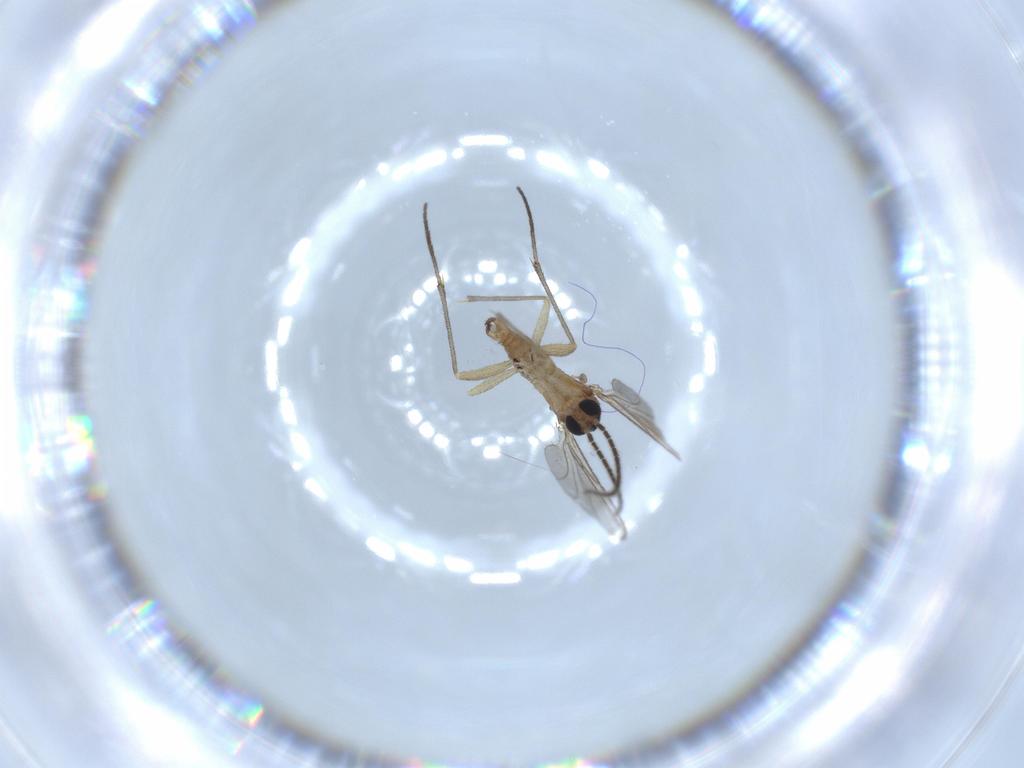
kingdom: Animalia
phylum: Arthropoda
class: Insecta
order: Diptera
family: Sciaridae
